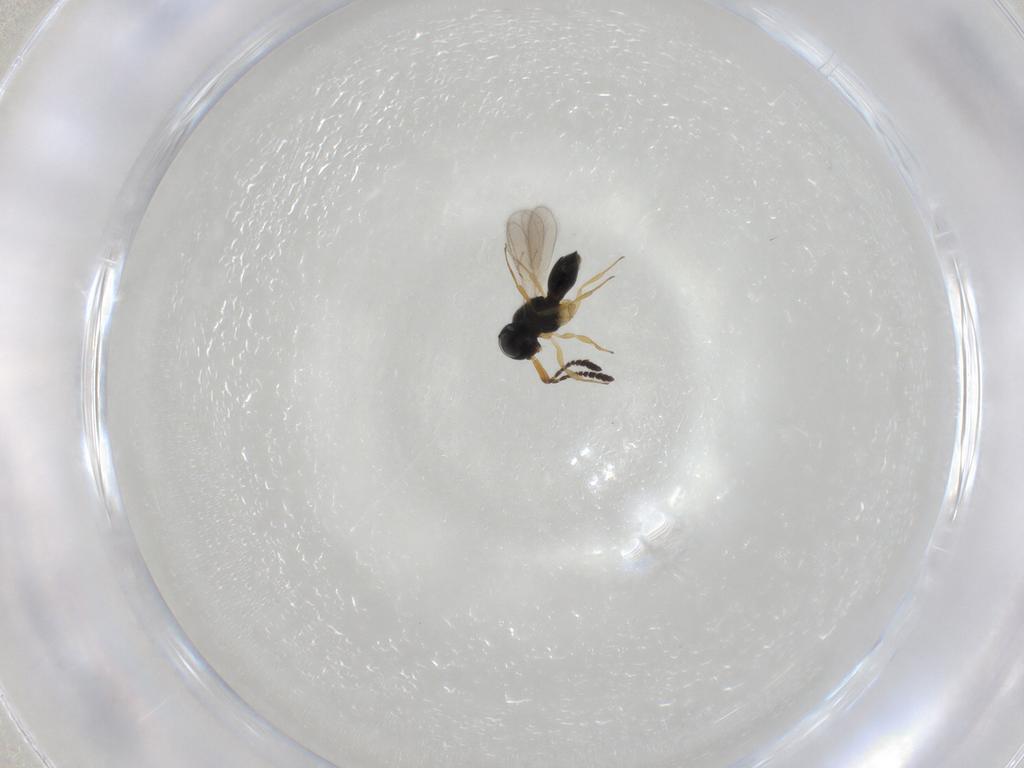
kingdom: Animalia
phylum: Arthropoda
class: Insecta
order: Hymenoptera
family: Scelionidae
